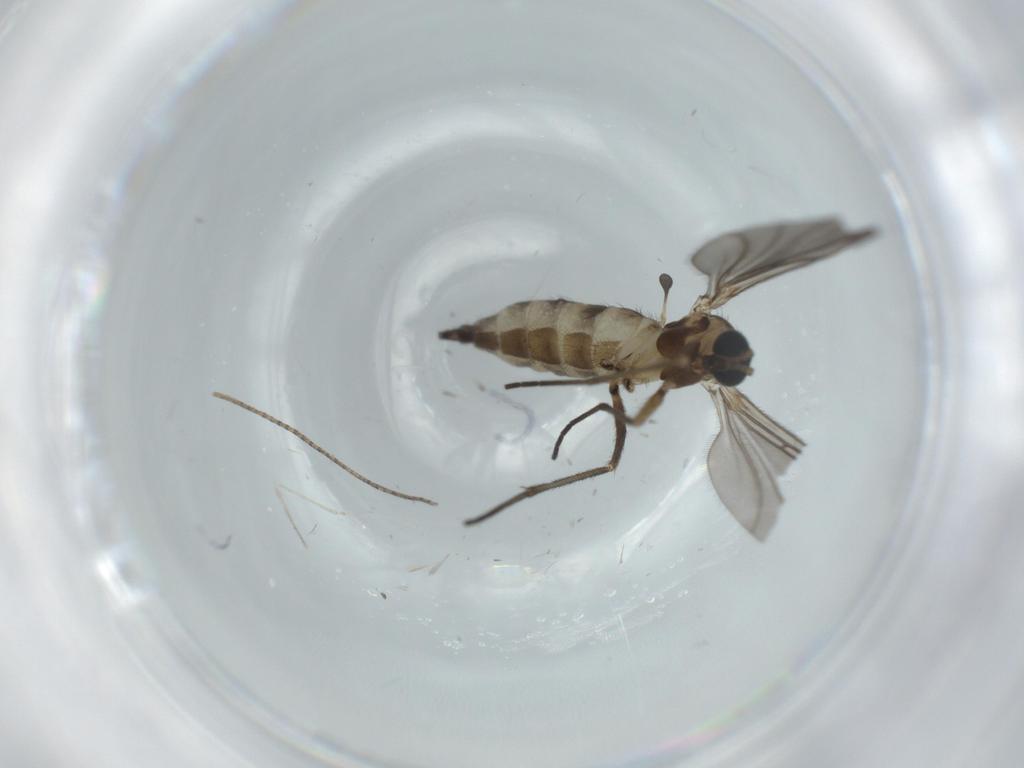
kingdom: Animalia
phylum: Arthropoda
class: Insecta
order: Diptera
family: Sciaridae
